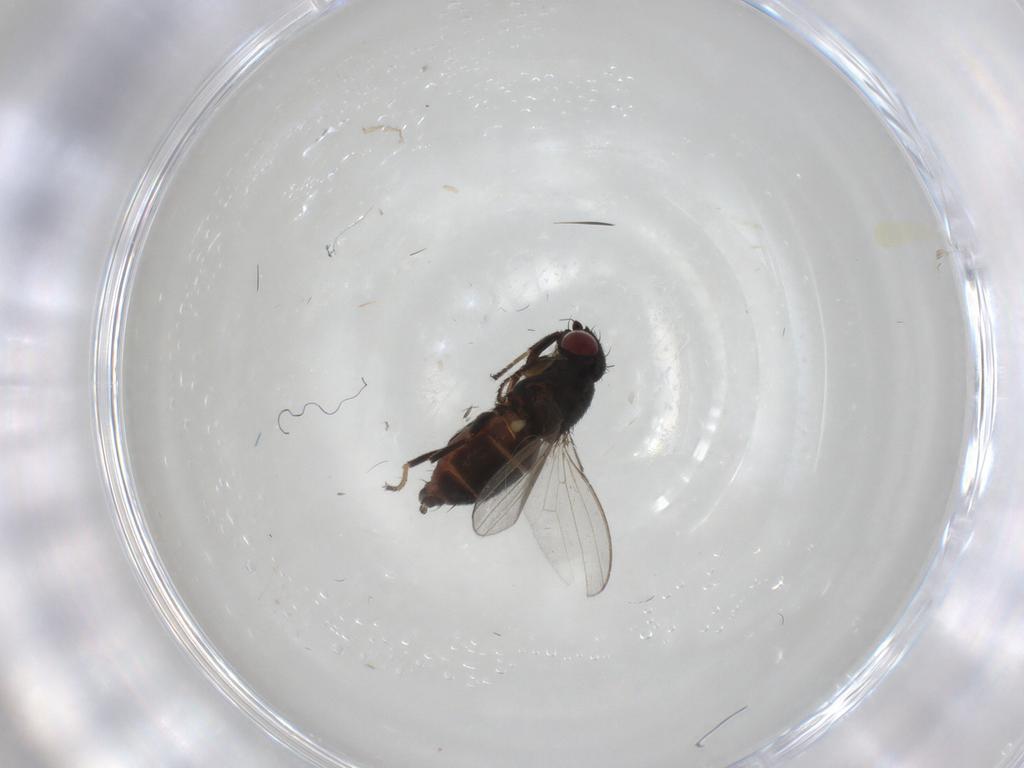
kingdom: Animalia
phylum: Arthropoda
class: Insecta
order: Diptera
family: Milichiidae
